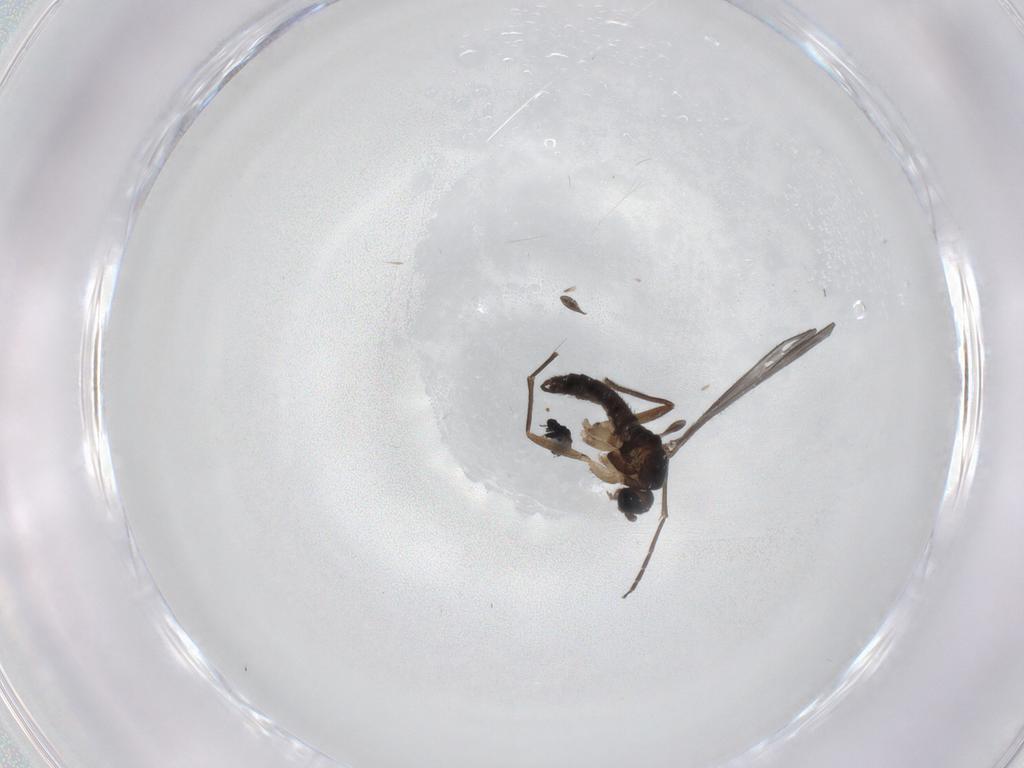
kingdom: Animalia
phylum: Arthropoda
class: Insecta
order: Diptera
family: Sciaridae
